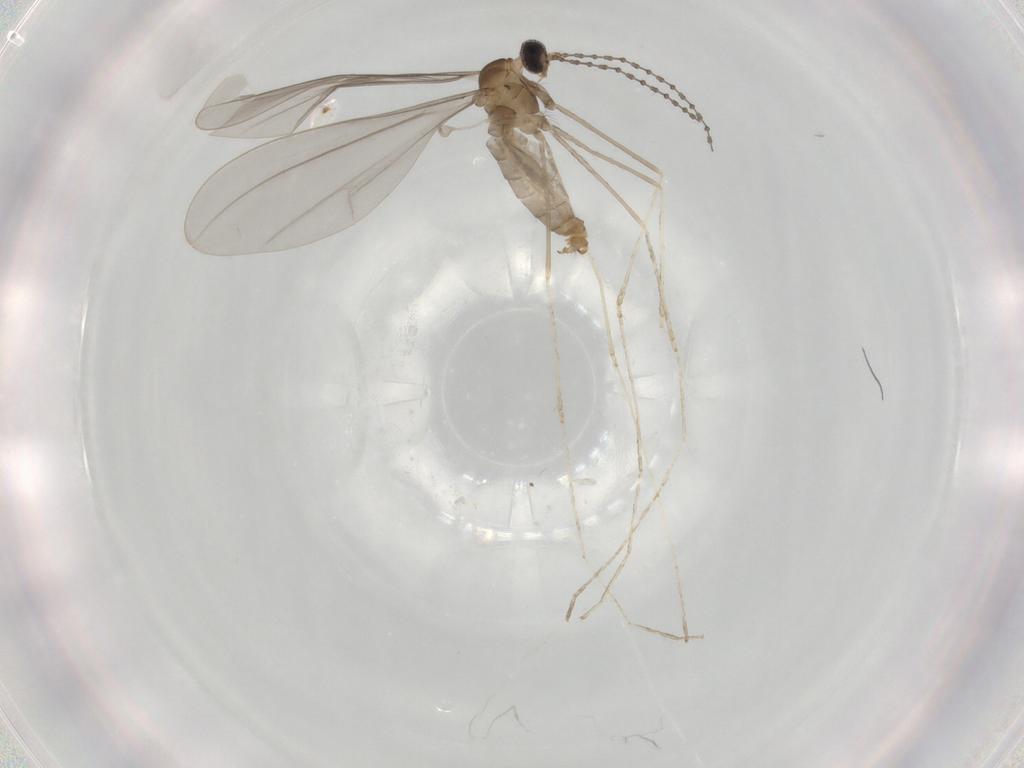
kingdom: Animalia
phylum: Arthropoda
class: Insecta
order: Diptera
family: Cecidomyiidae
